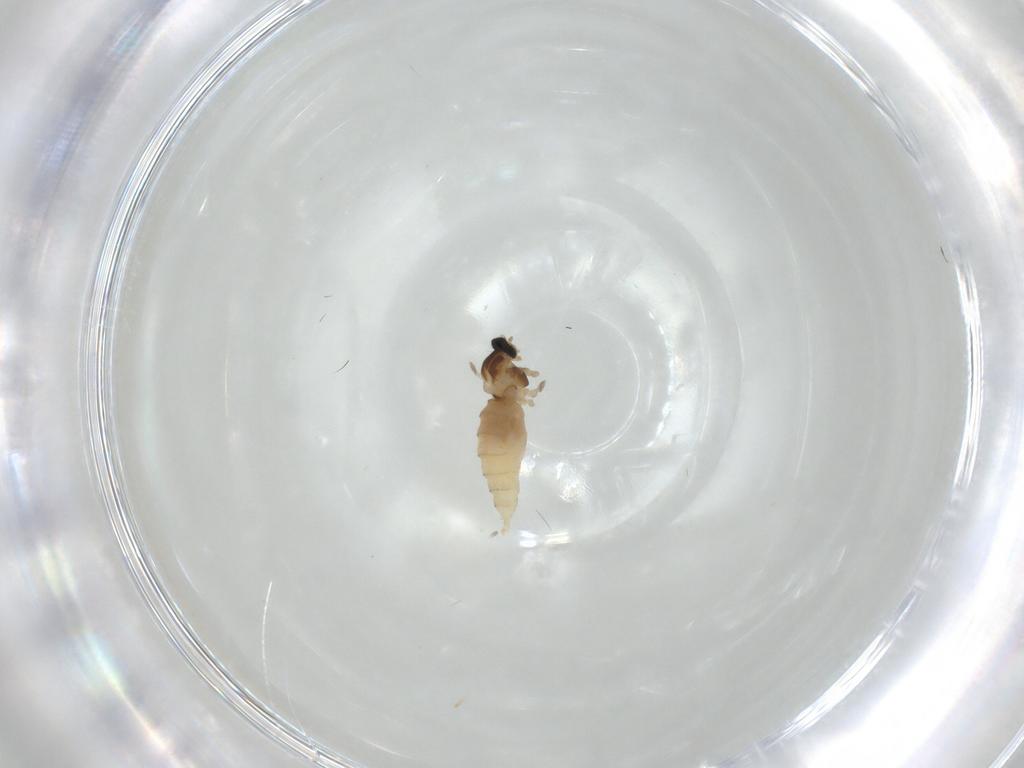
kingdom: Animalia
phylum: Arthropoda
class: Insecta
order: Diptera
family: Cecidomyiidae
